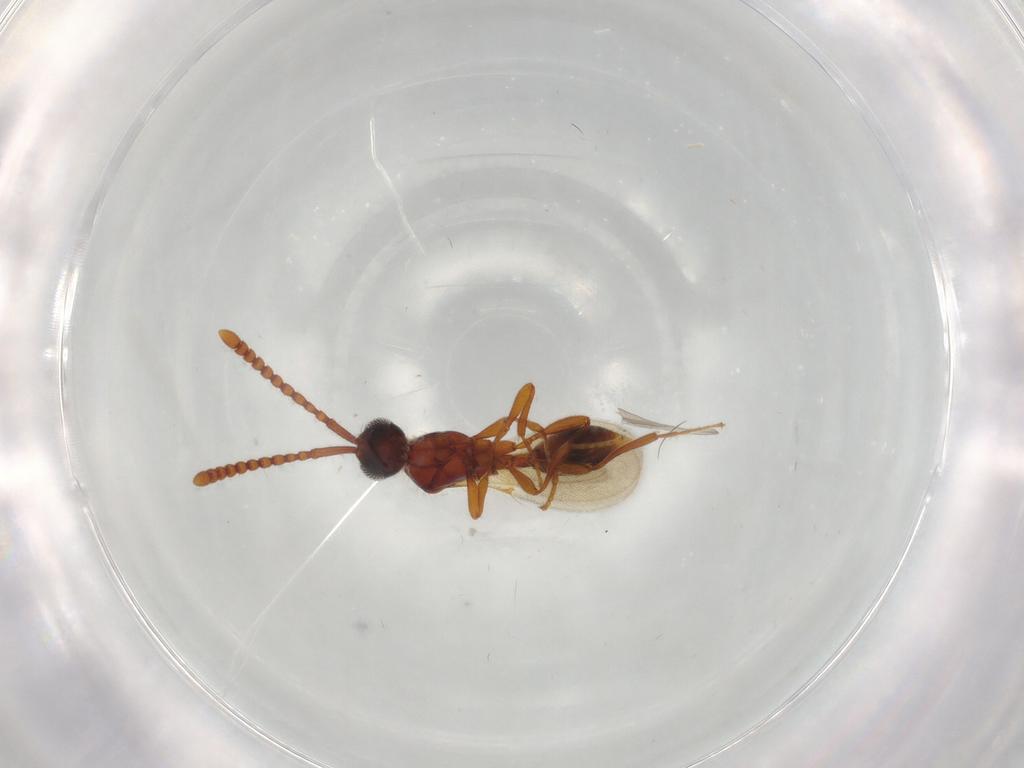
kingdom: Animalia
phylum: Arthropoda
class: Insecta
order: Hymenoptera
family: Diapriidae
